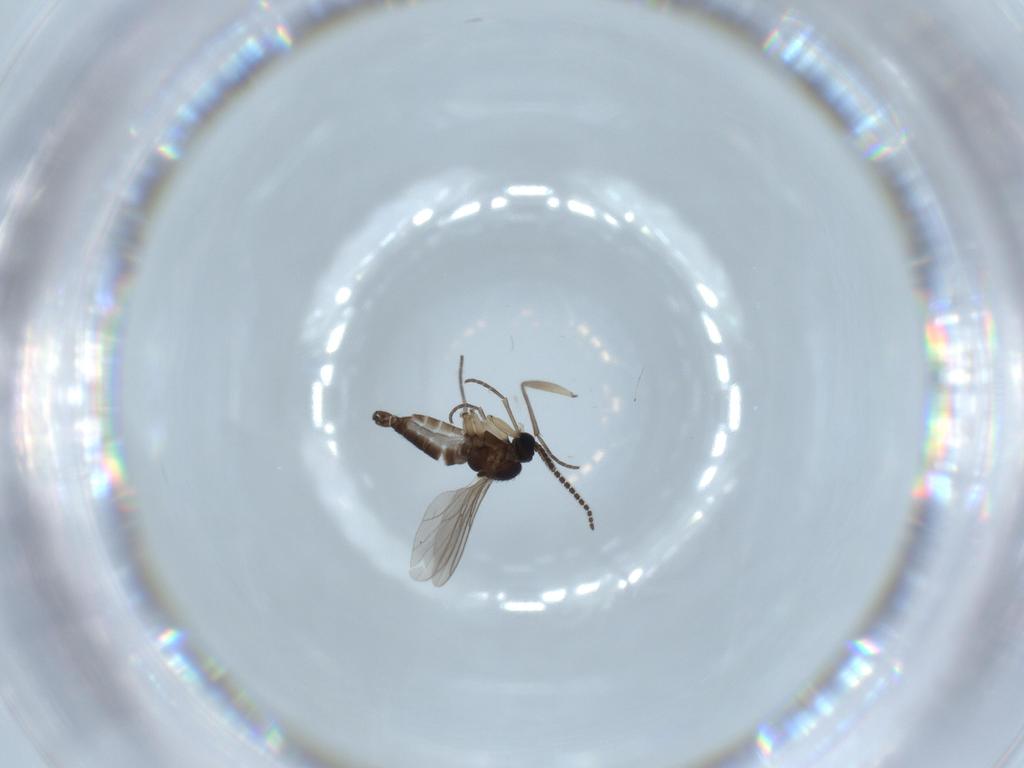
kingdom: Animalia
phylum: Arthropoda
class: Insecta
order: Diptera
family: Sciaridae
